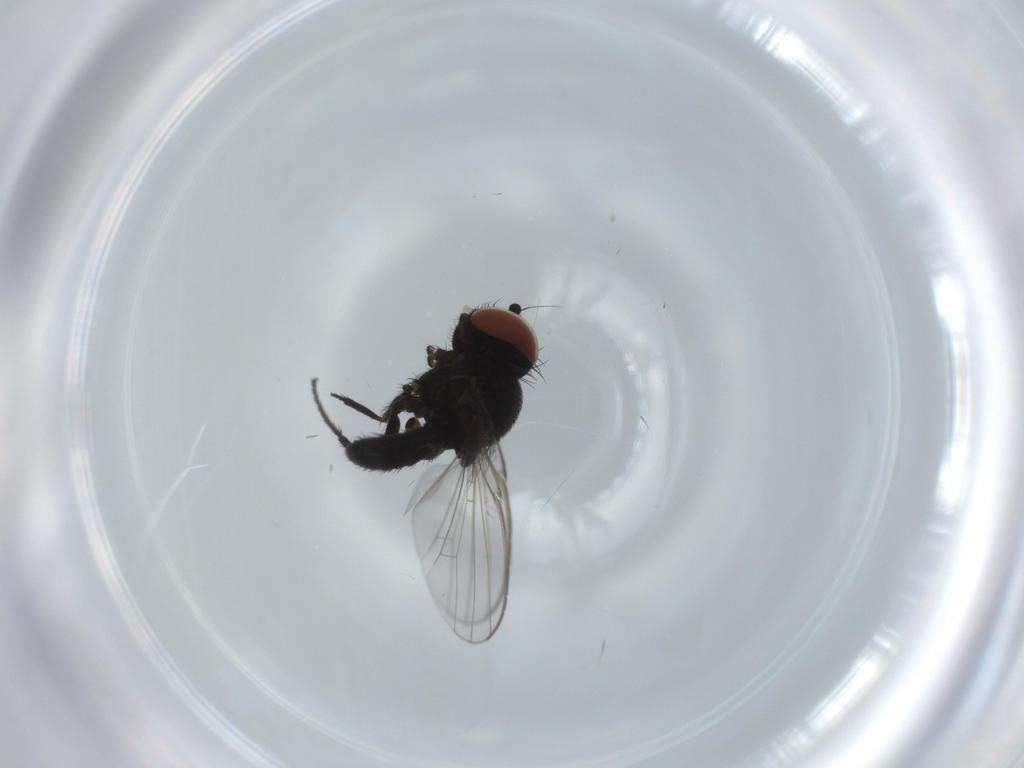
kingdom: Animalia
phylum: Arthropoda
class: Insecta
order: Diptera
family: Milichiidae
